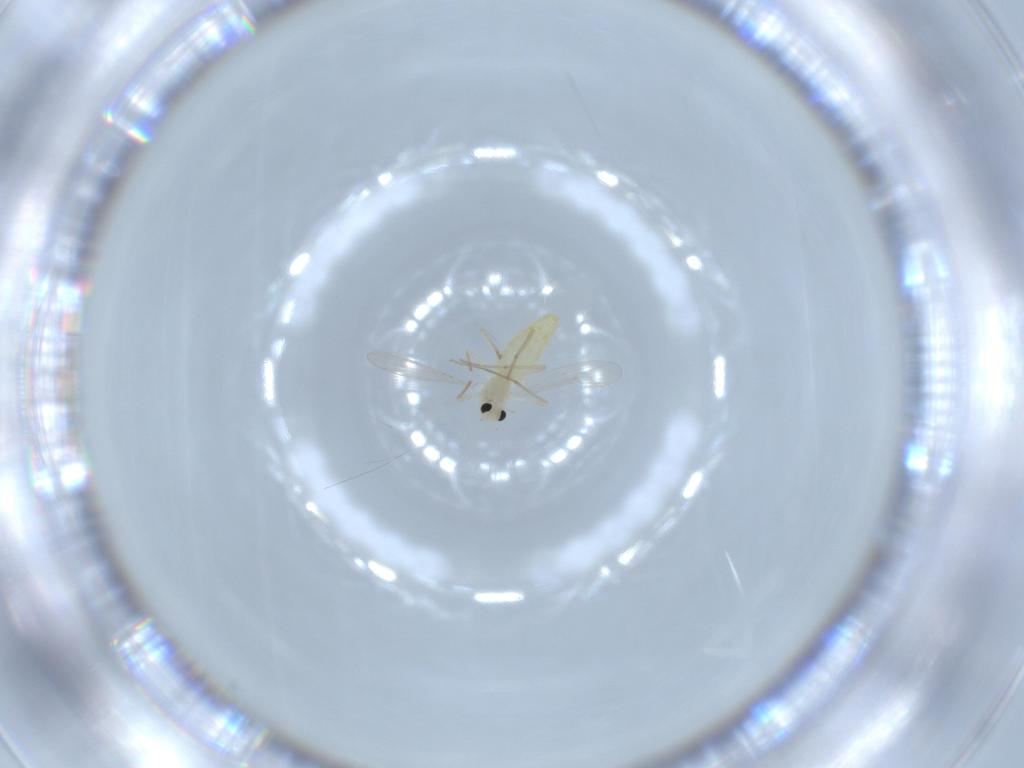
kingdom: Animalia
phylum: Arthropoda
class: Insecta
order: Diptera
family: Chironomidae
